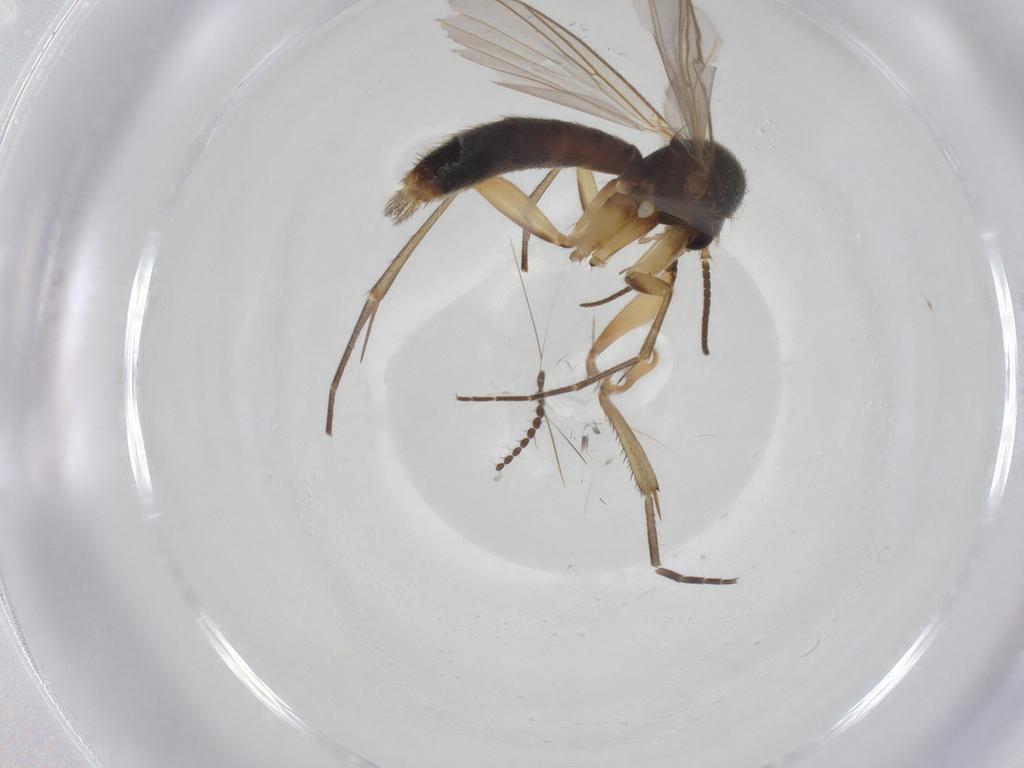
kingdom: Animalia
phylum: Arthropoda
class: Insecta
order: Diptera
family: Mycetophilidae
